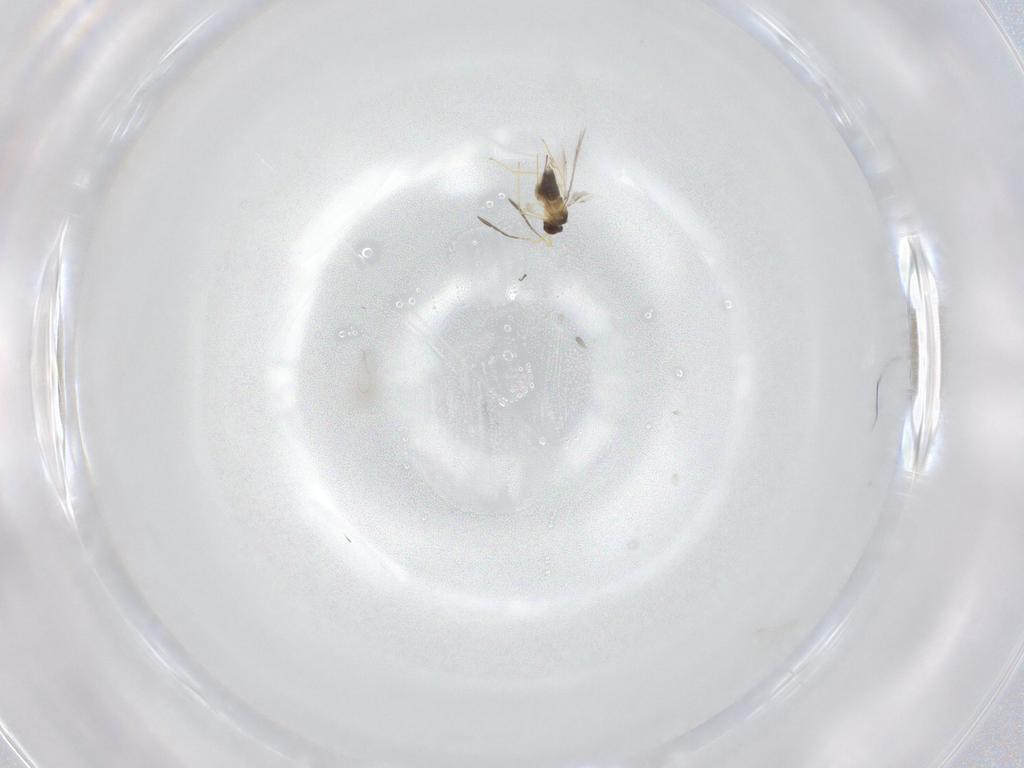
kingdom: Animalia
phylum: Arthropoda
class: Insecta
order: Hymenoptera
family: Mymaridae
